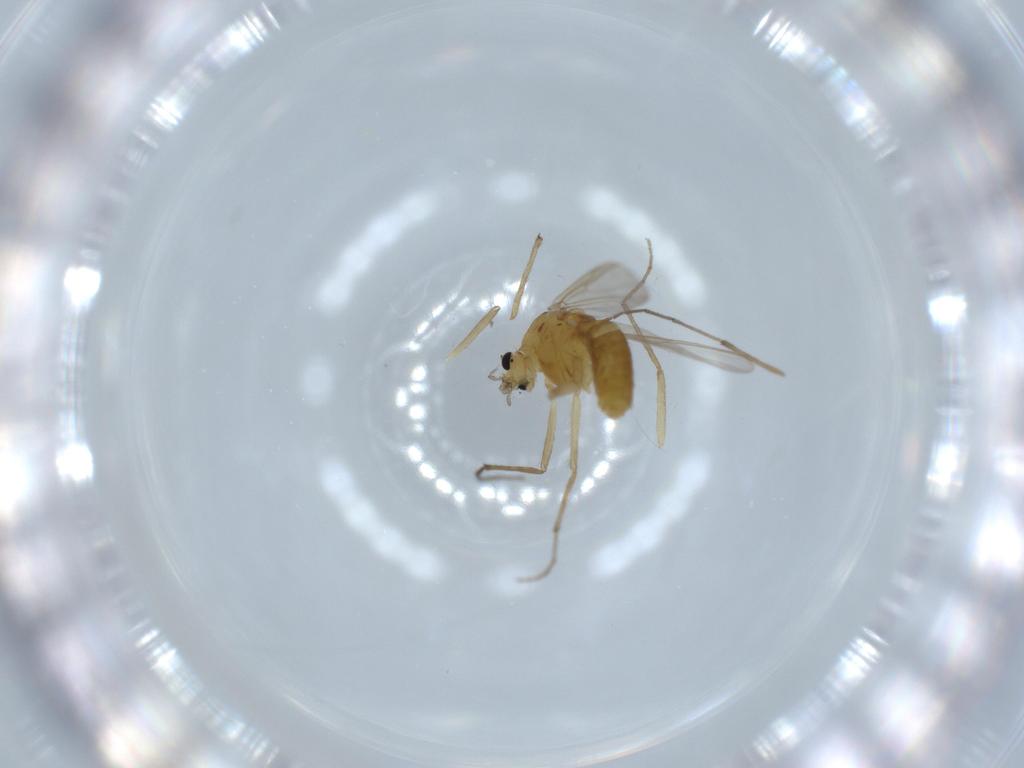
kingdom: Animalia
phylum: Arthropoda
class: Insecta
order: Diptera
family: Chironomidae
